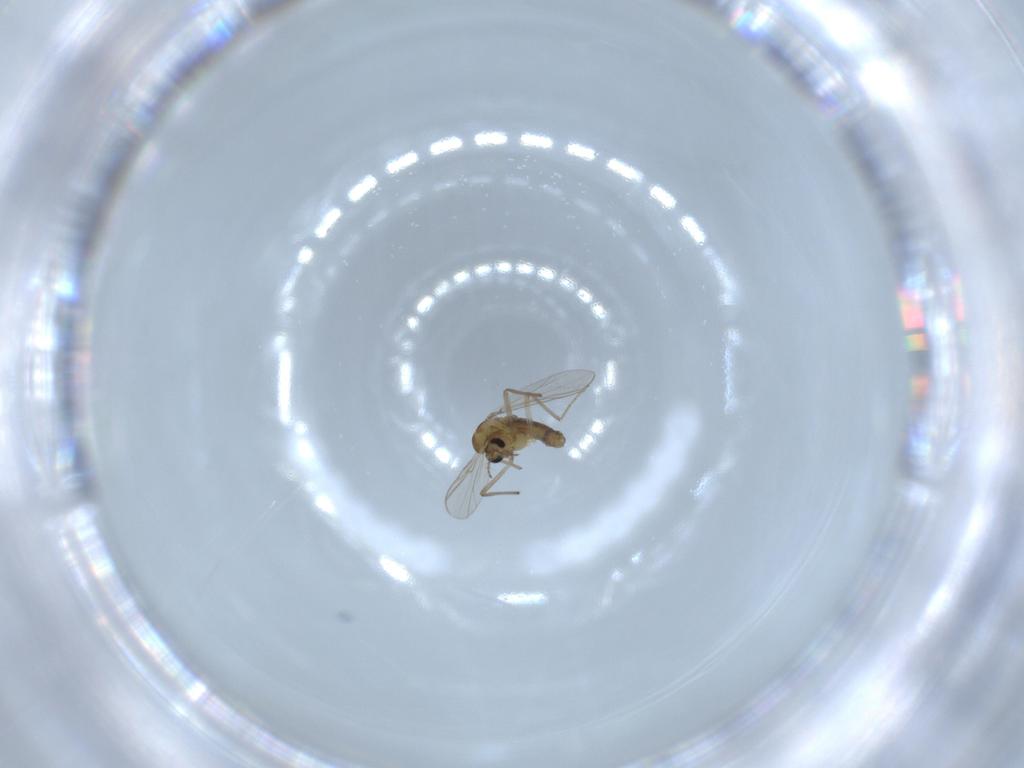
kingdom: Animalia
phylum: Arthropoda
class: Insecta
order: Diptera
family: Chironomidae
